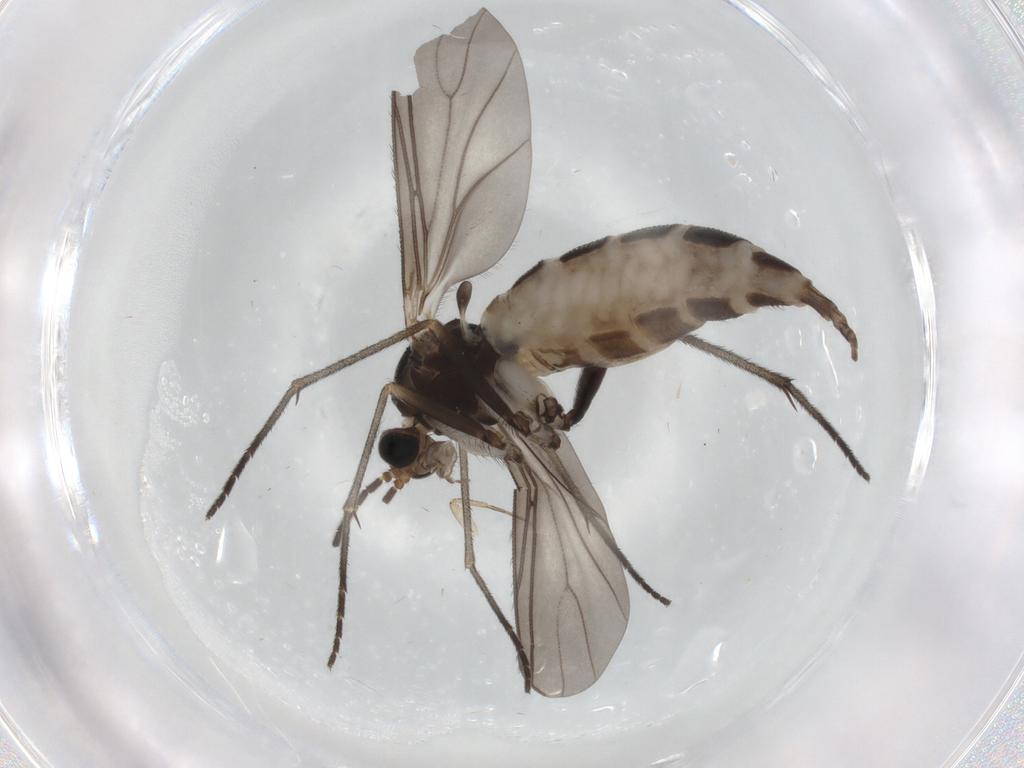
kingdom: Animalia
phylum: Arthropoda
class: Insecta
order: Diptera
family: Sciaridae
